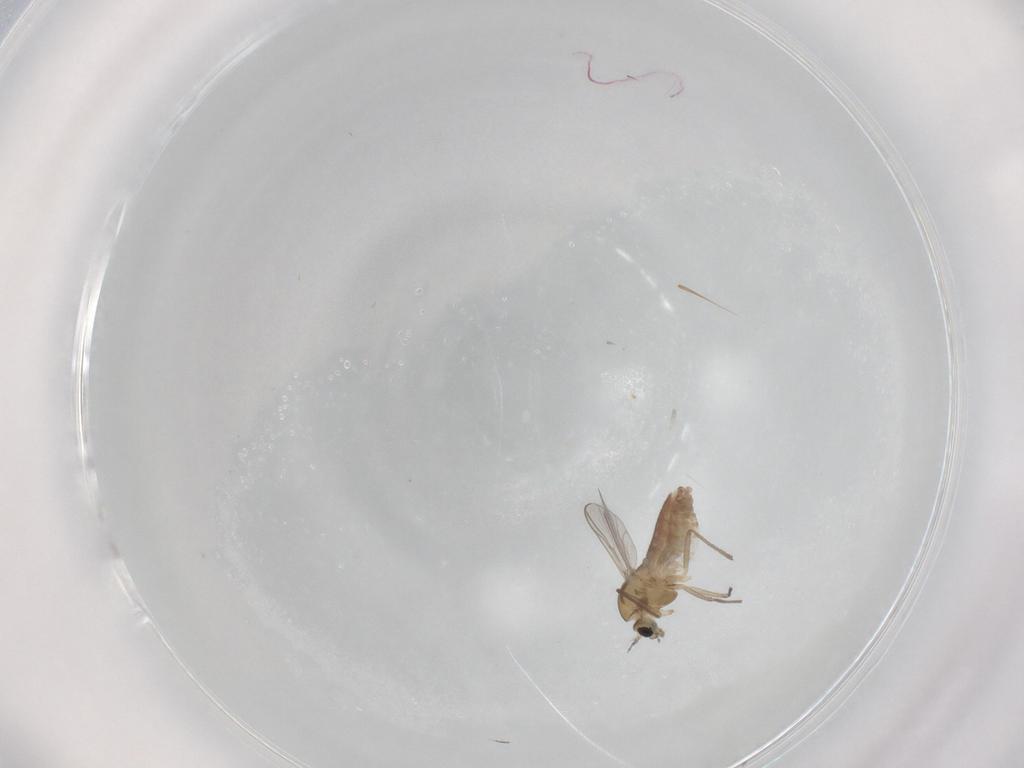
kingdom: Animalia
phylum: Arthropoda
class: Insecta
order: Diptera
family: Chironomidae
